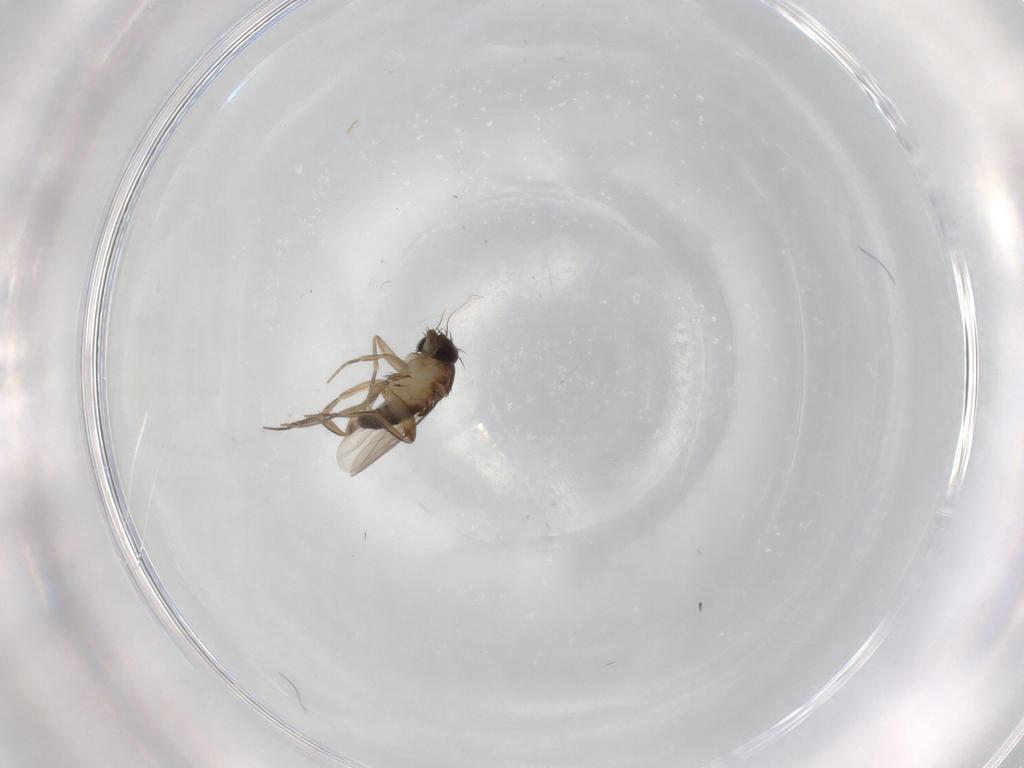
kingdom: Animalia
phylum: Arthropoda
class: Insecta
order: Diptera
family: Phoridae
